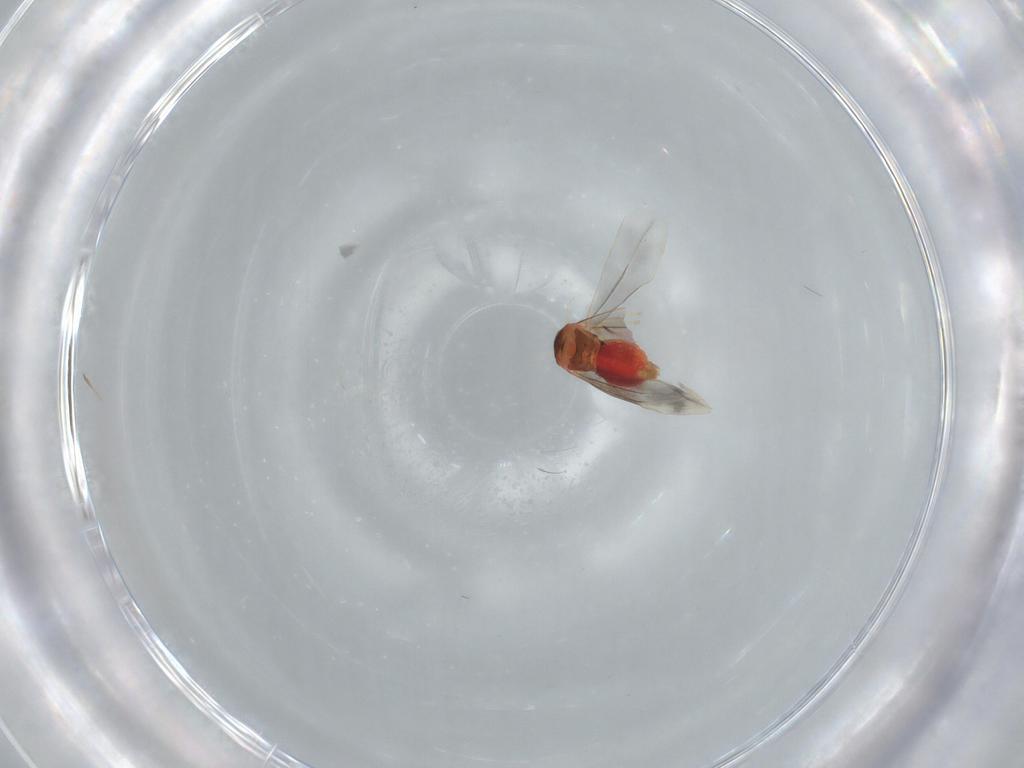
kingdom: Animalia
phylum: Arthropoda
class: Insecta
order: Hemiptera
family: Aleyrodidae
